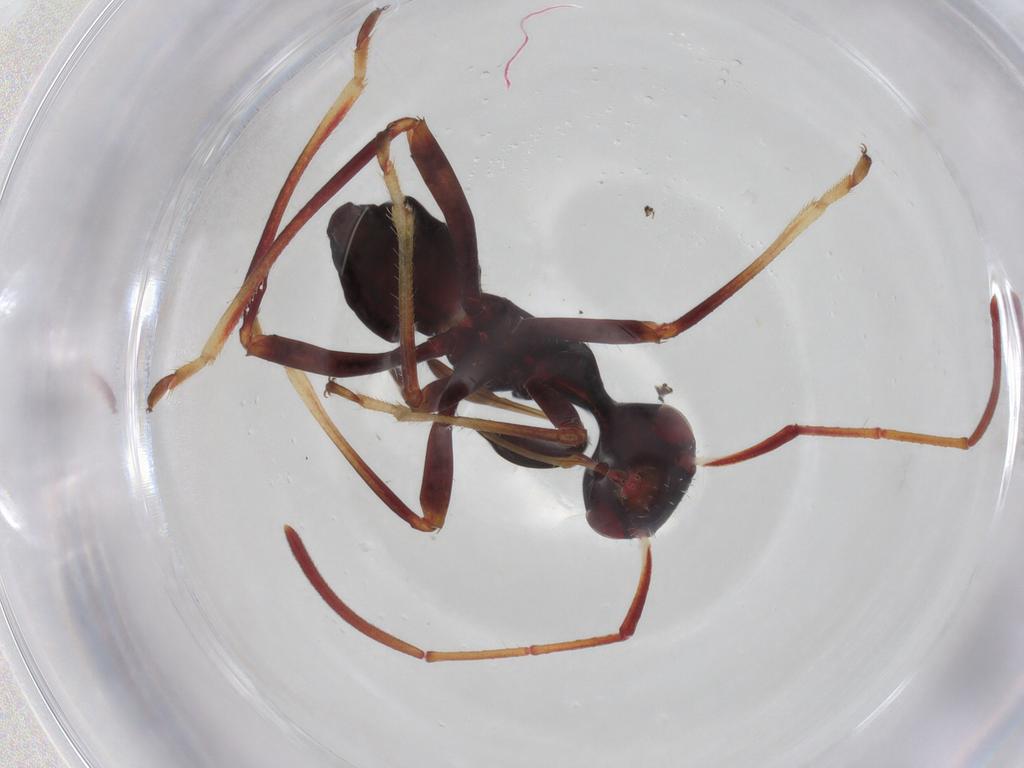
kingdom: Animalia
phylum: Arthropoda
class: Insecta
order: Hemiptera
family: Alydidae
